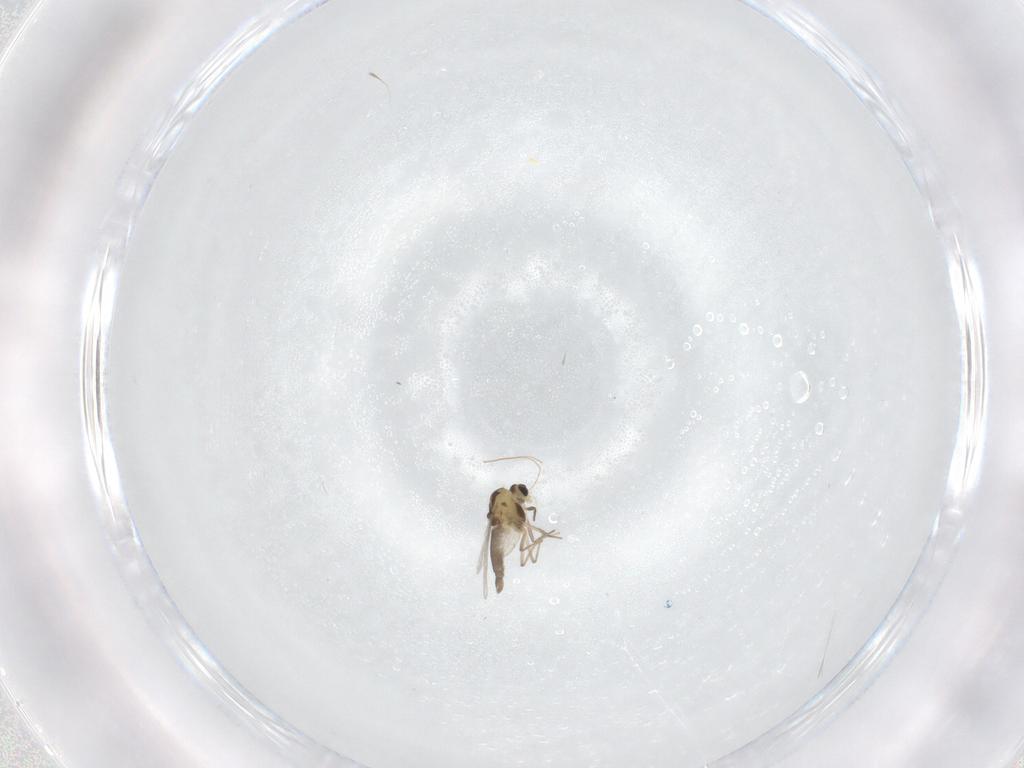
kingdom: Animalia
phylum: Arthropoda
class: Insecta
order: Diptera
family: Chironomidae
